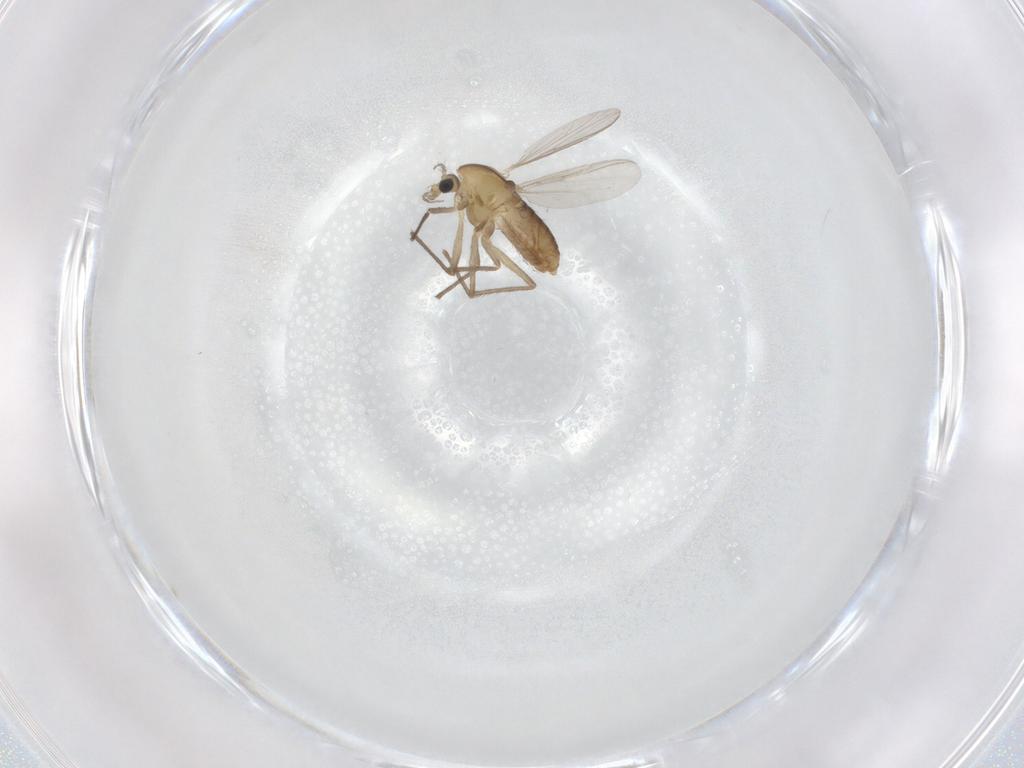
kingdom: Animalia
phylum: Arthropoda
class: Insecta
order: Diptera
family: Chironomidae
